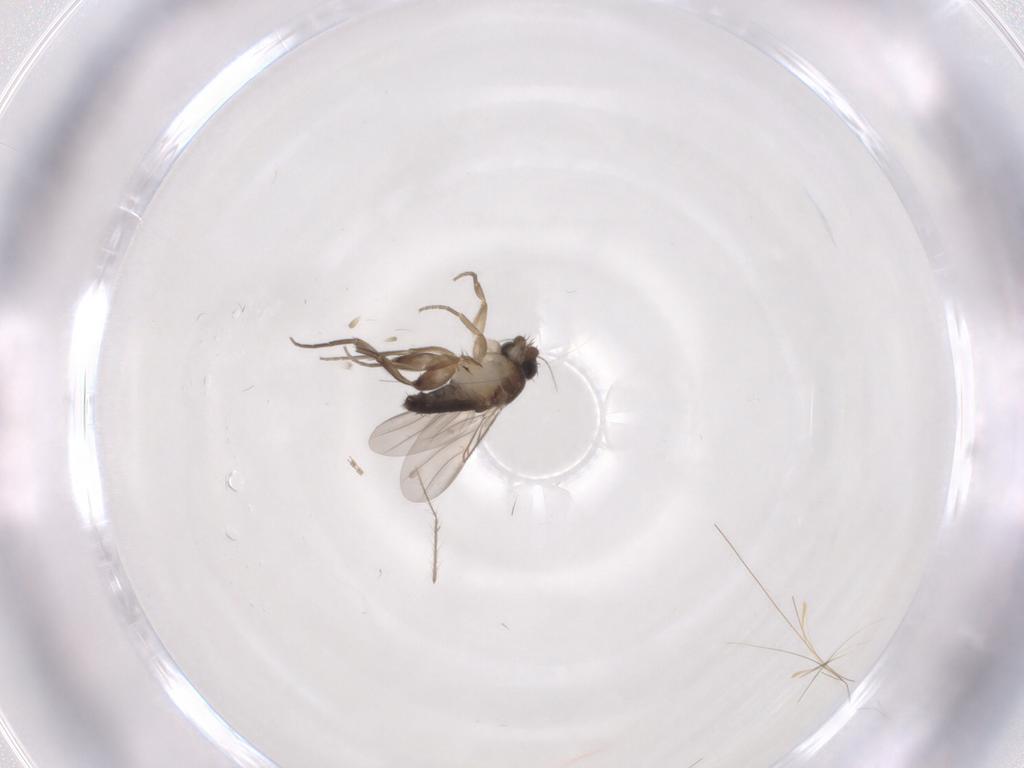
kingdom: Animalia
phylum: Arthropoda
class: Insecta
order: Diptera
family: Phoridae
